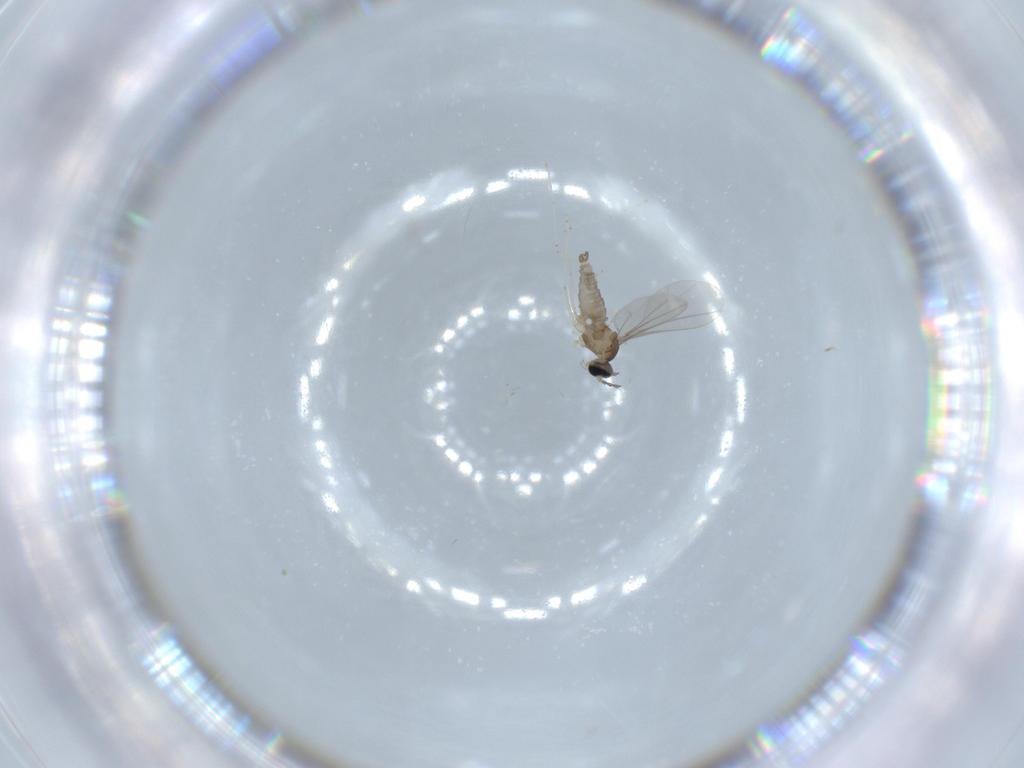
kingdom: Animalia
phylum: Arthropoda
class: Insecta
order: Diptera
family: Cecidomyiidae
